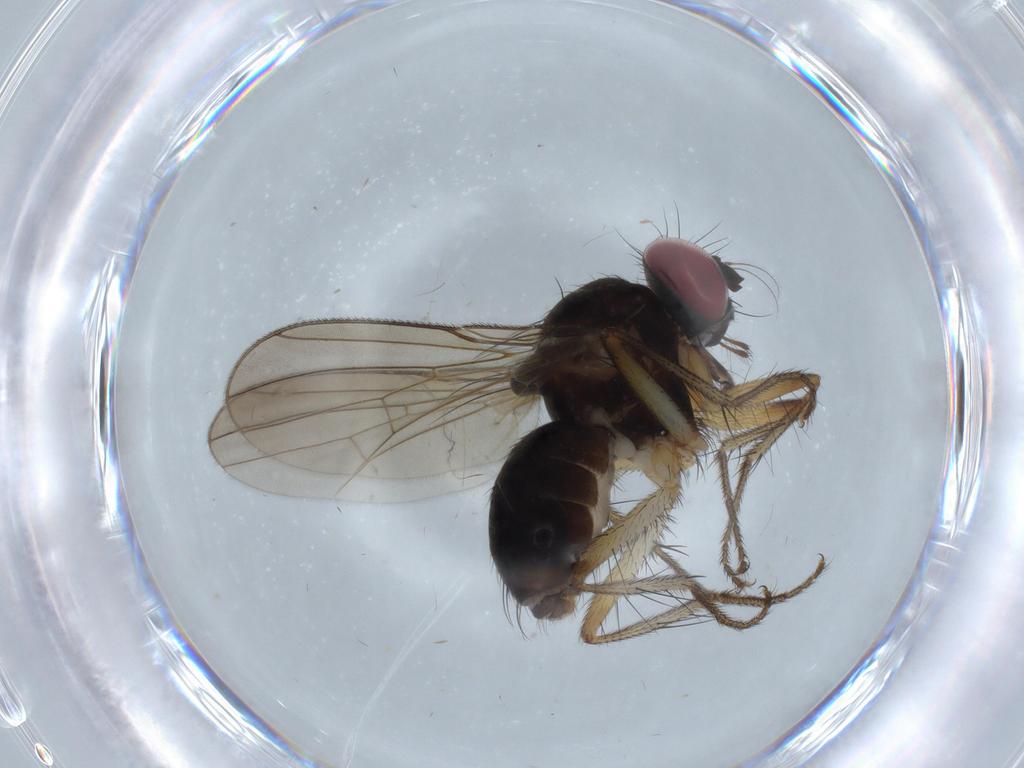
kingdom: Animalia
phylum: Arthropoda
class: Insecta
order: Diptera
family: Anthomyiidae
